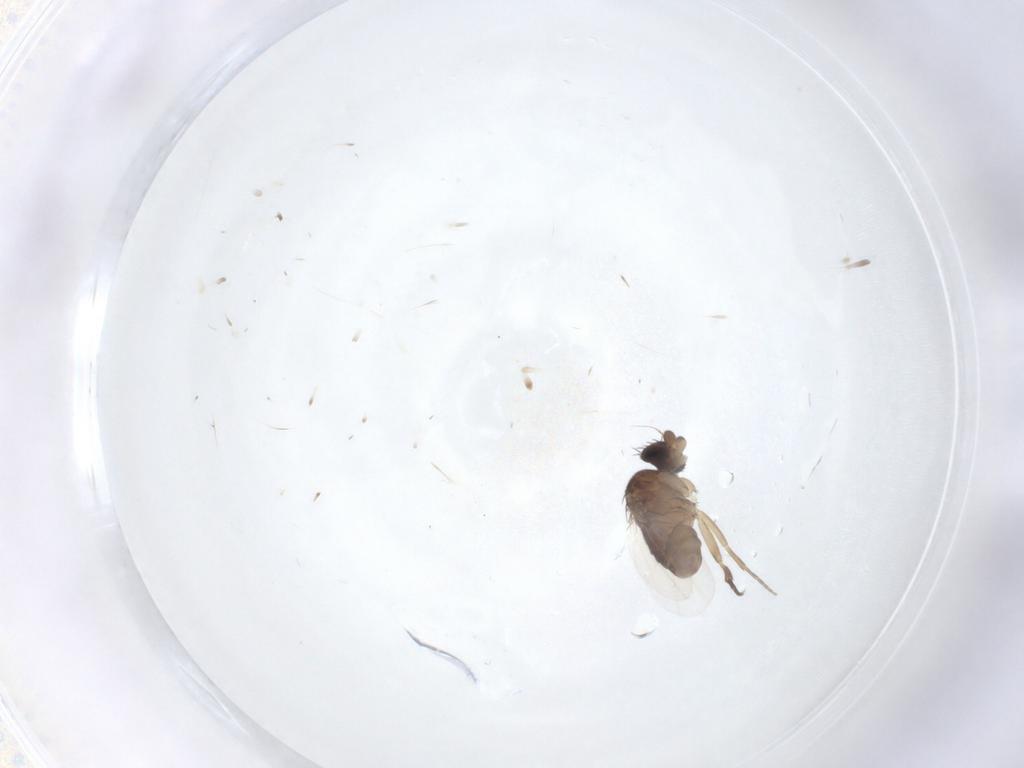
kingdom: Animalia
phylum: Arthropoda
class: Insecta
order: Diptera
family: Phoridae
